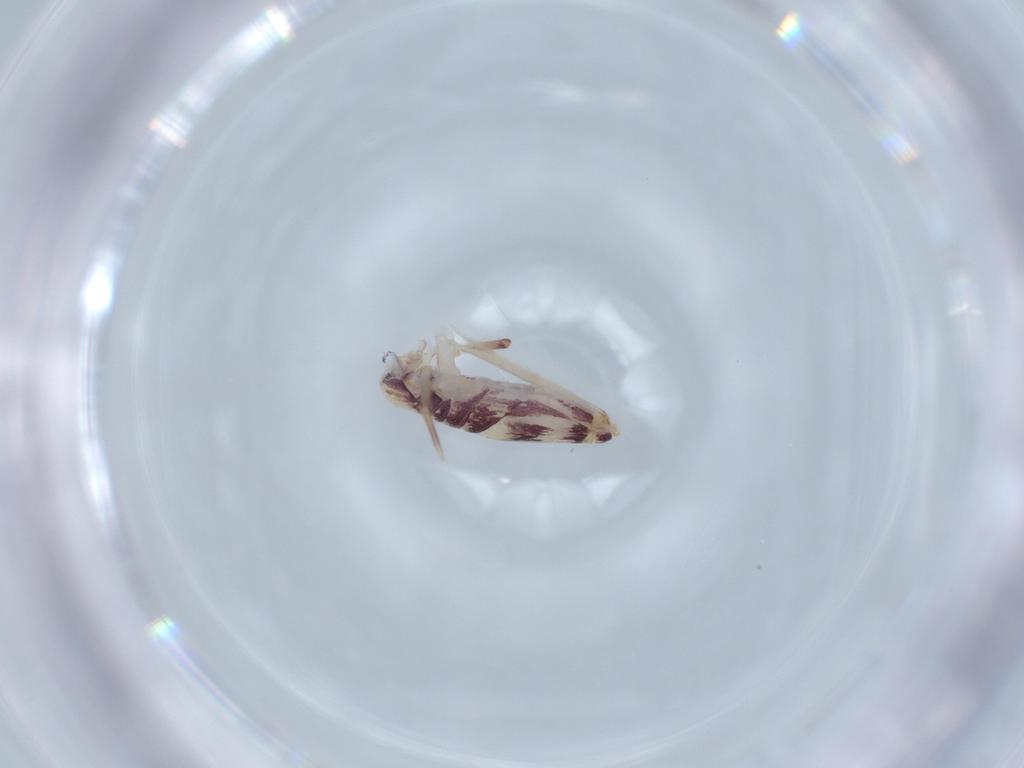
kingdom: Animalia
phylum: Arthropoda
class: Collembola
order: Entomobryomorpha
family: Entomobryidae
